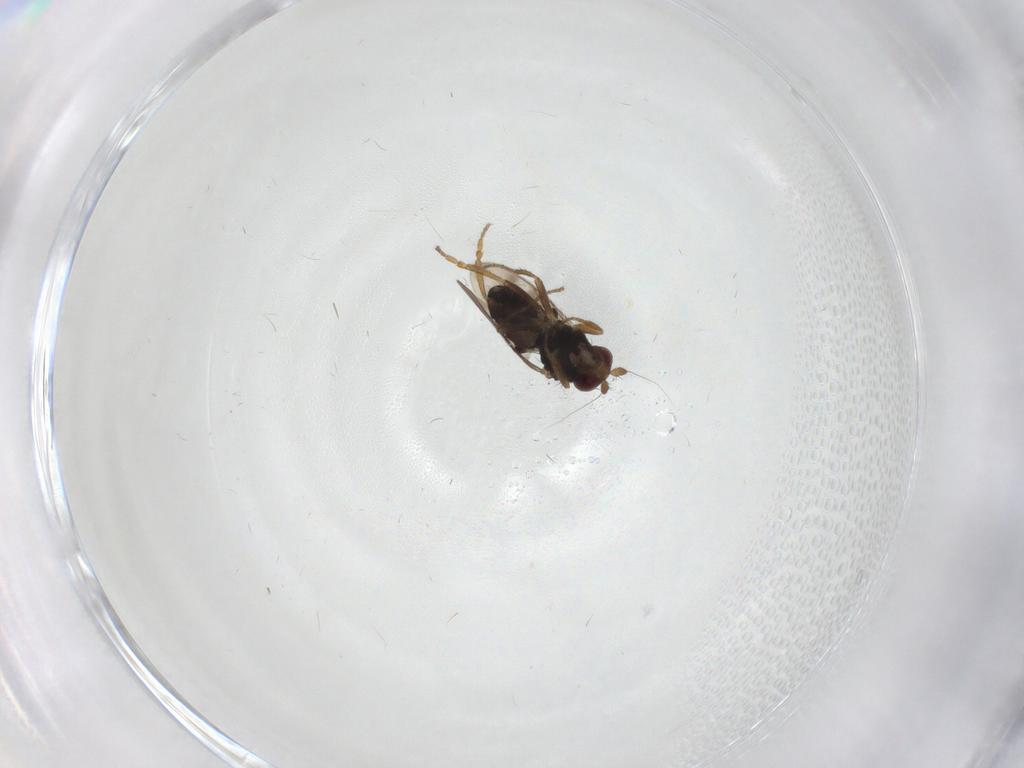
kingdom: Animalia
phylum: Arthropoda
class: Insecta
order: Diptera
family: Sphaeroceridae
